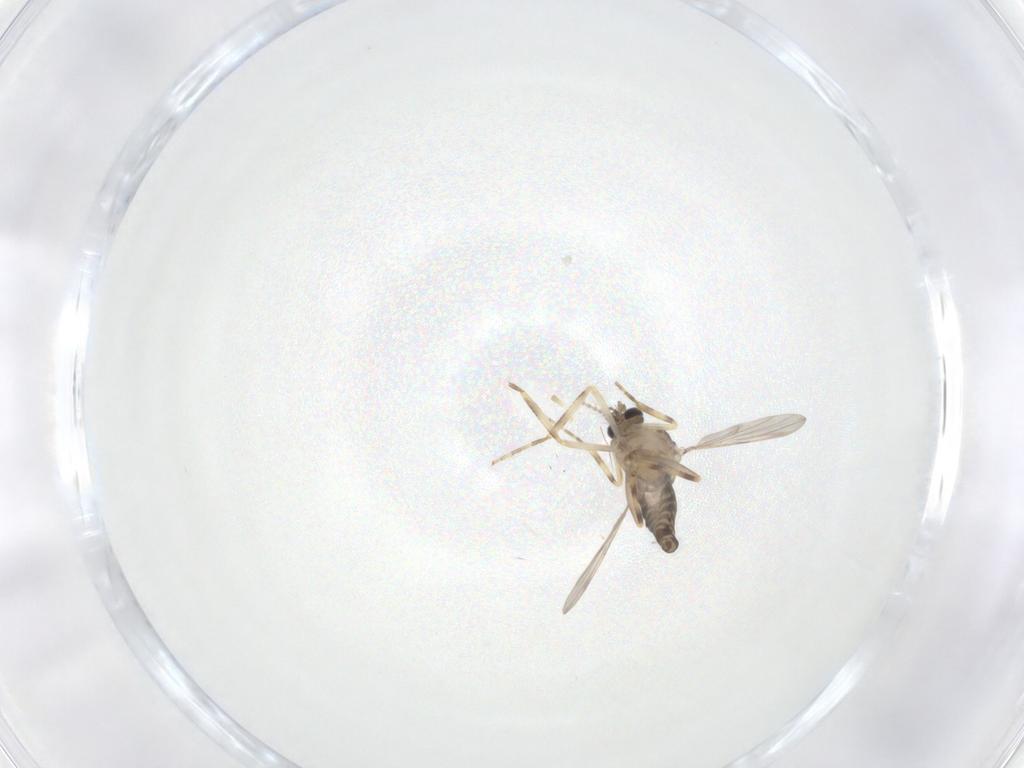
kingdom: Animalia
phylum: Arthropoda
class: Insecta
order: Diptera
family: Ceratopogonidae
